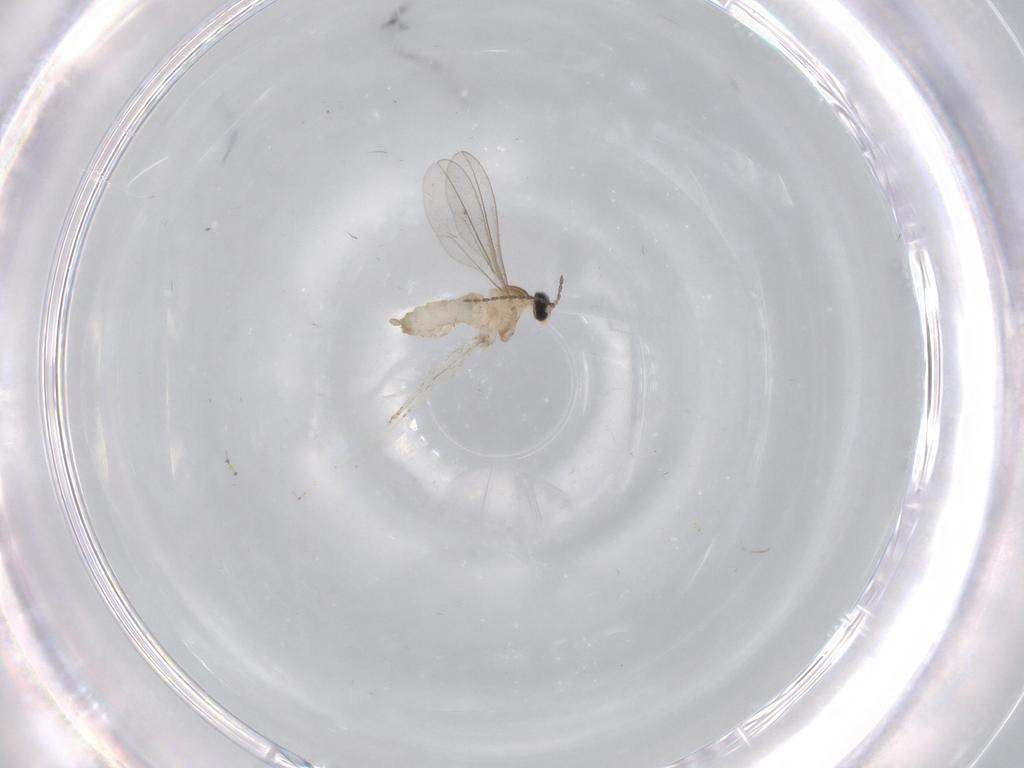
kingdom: Animalia
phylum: Arthropoda
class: Insecta
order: Diptera
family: Cecidomyiidae
